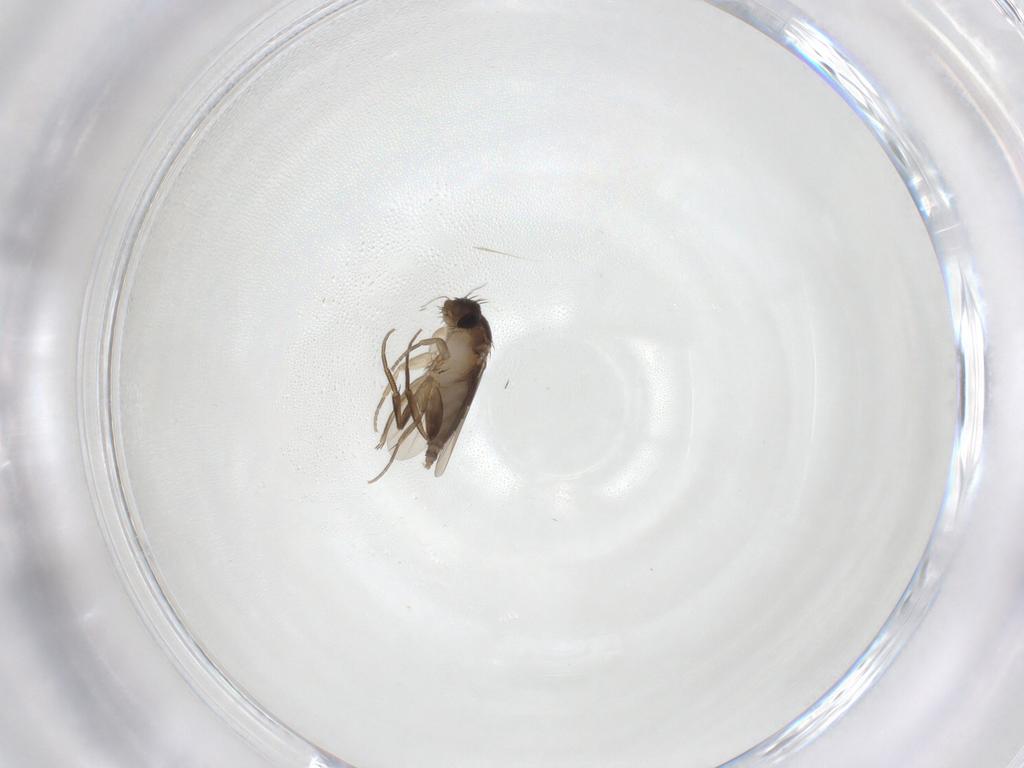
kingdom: Animalia
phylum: Arthropoda
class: Insecta
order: Diptera
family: Phoridae
